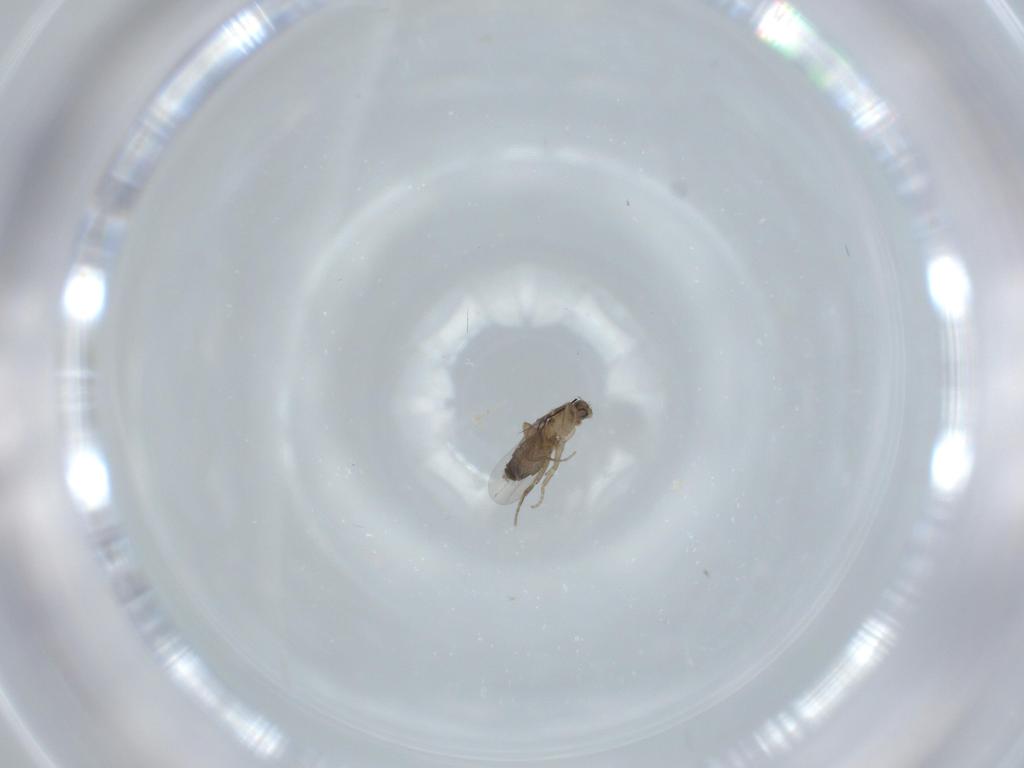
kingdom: Animalia
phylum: Arthropoda
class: Insecta
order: Diptera
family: Phoridae
